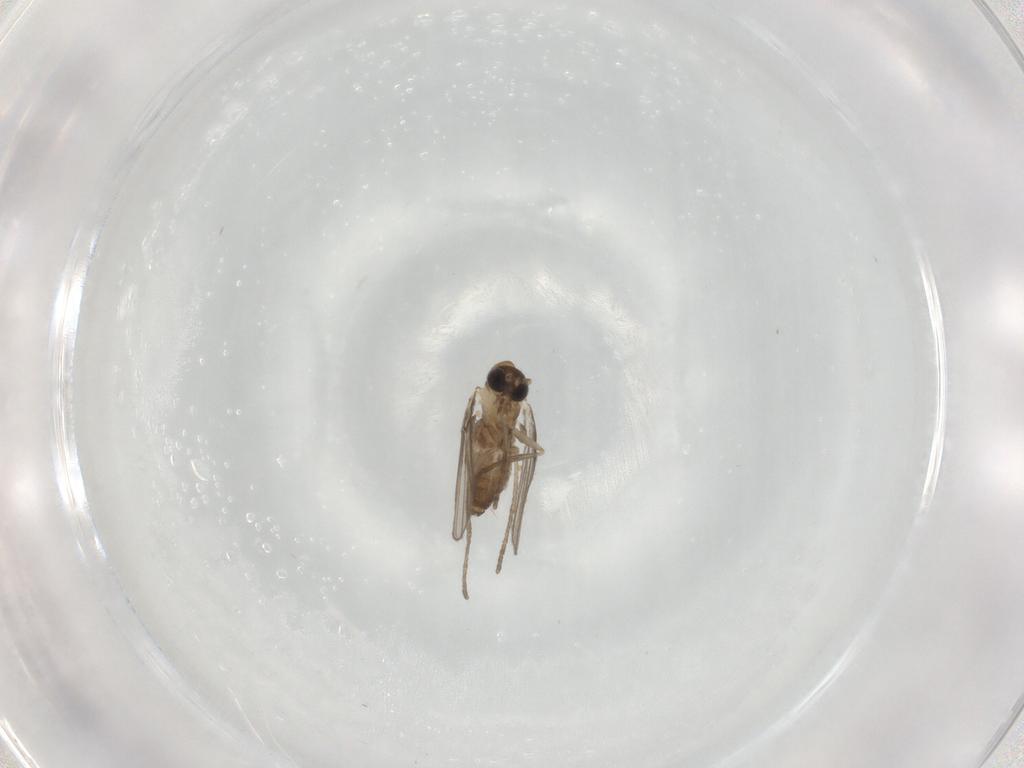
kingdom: Animalia
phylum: Arthropoda
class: Insecta
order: Diptera
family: Psychodidae
